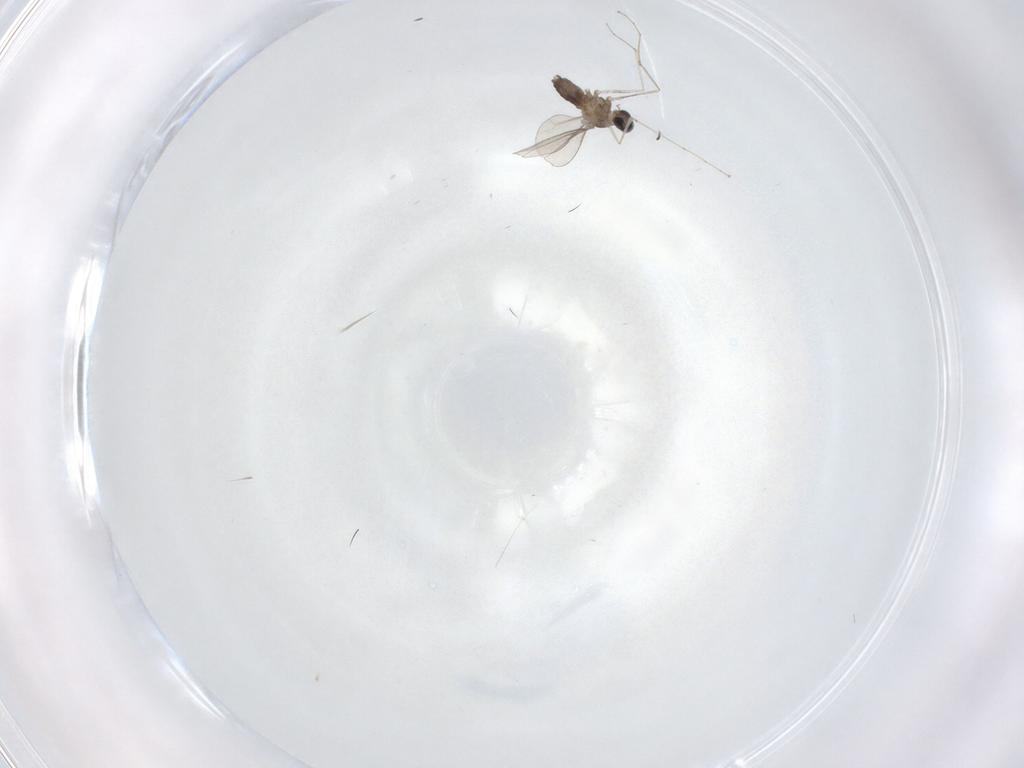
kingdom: Animalia
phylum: Arthropoda
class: Insecta
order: Diptera
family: Cecidomyiidae
